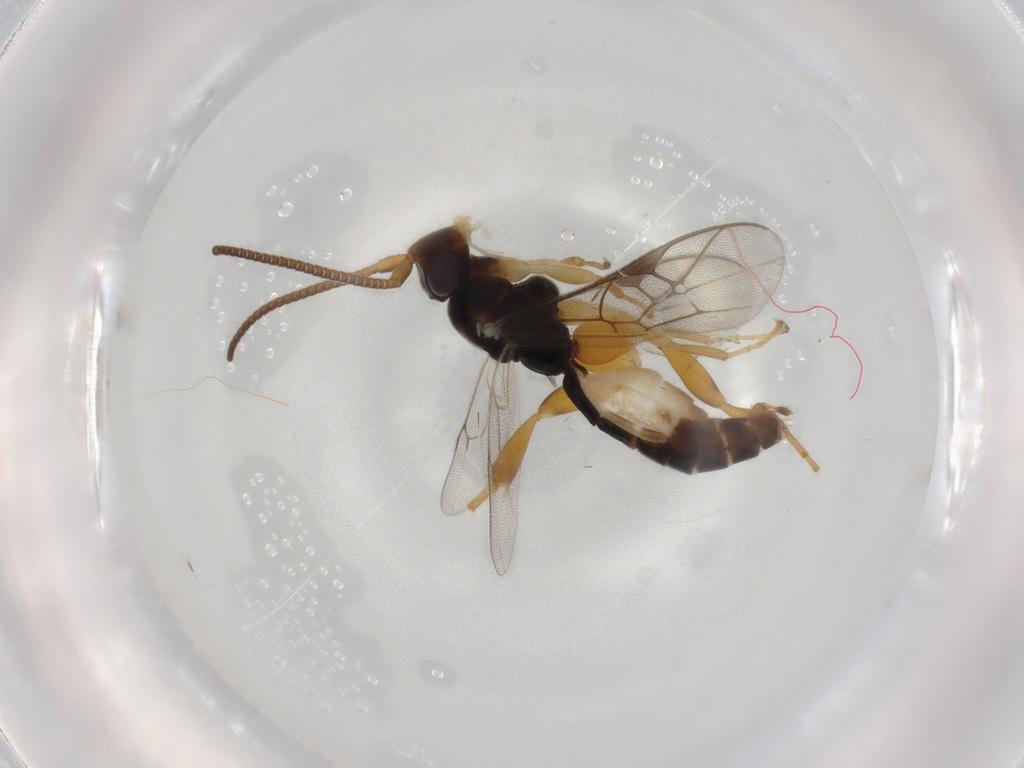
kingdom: Animalia
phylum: Arthropoda
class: Insecta
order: Hymenoptera
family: Ichneumonidae
